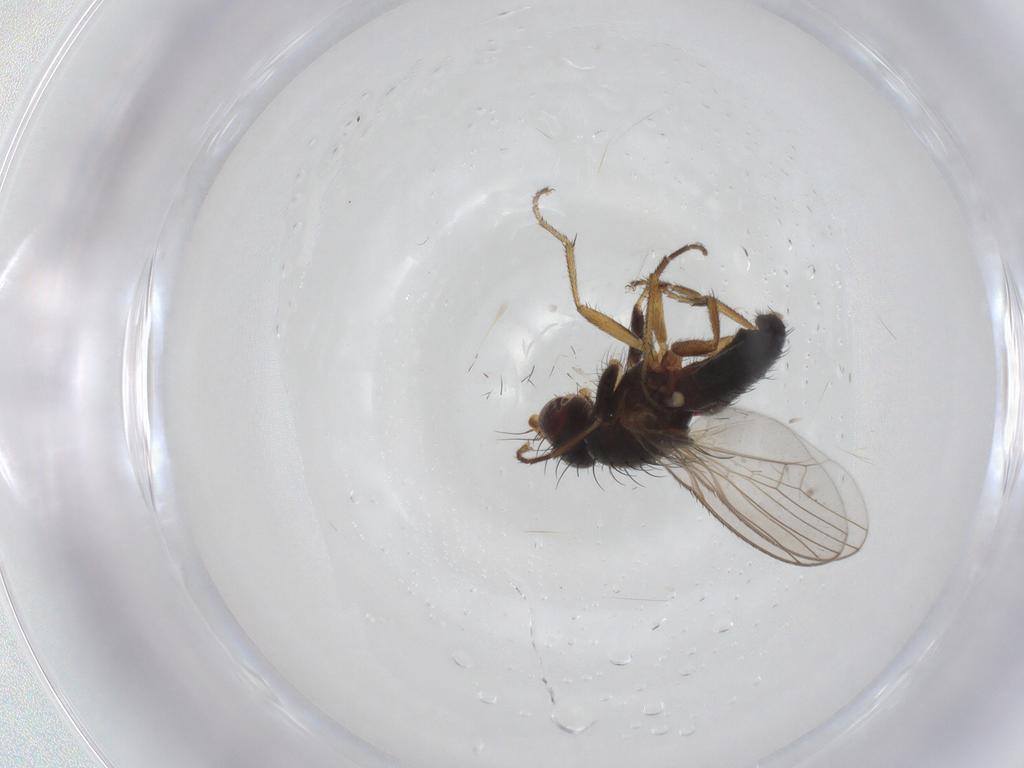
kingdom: Animalia
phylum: Arthropoda
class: Insecta
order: Diptera
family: Heleomyzidae
